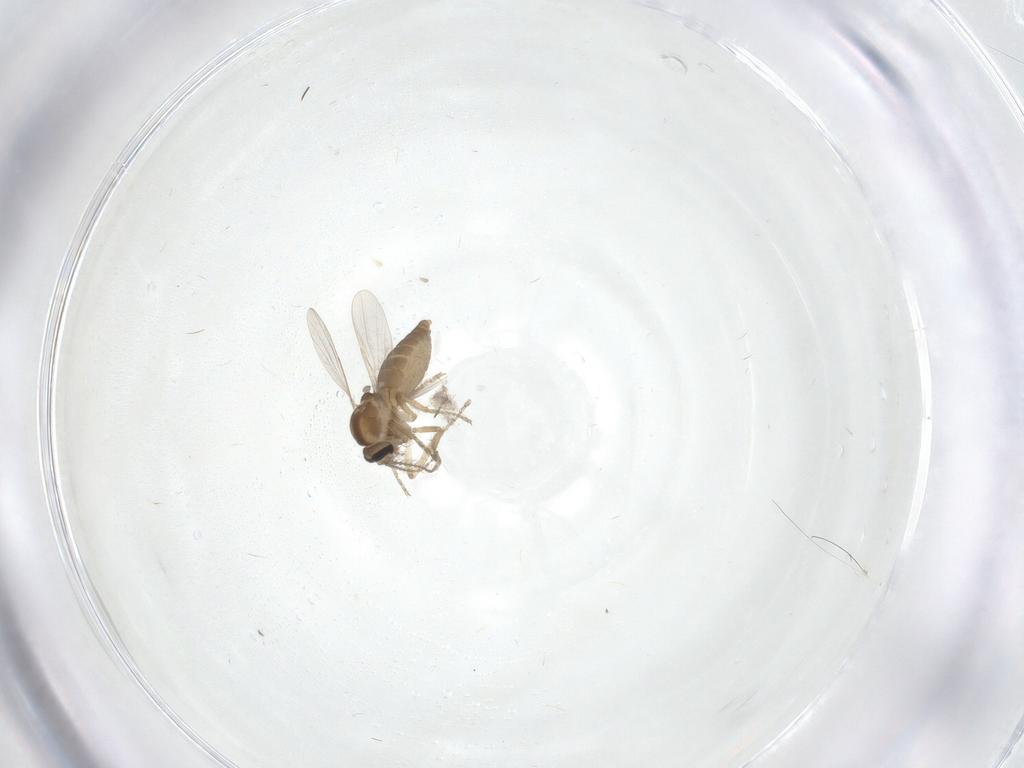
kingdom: Animalia
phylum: Arthropoda
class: Insecta
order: Diptera
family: Ceratopogonidae
